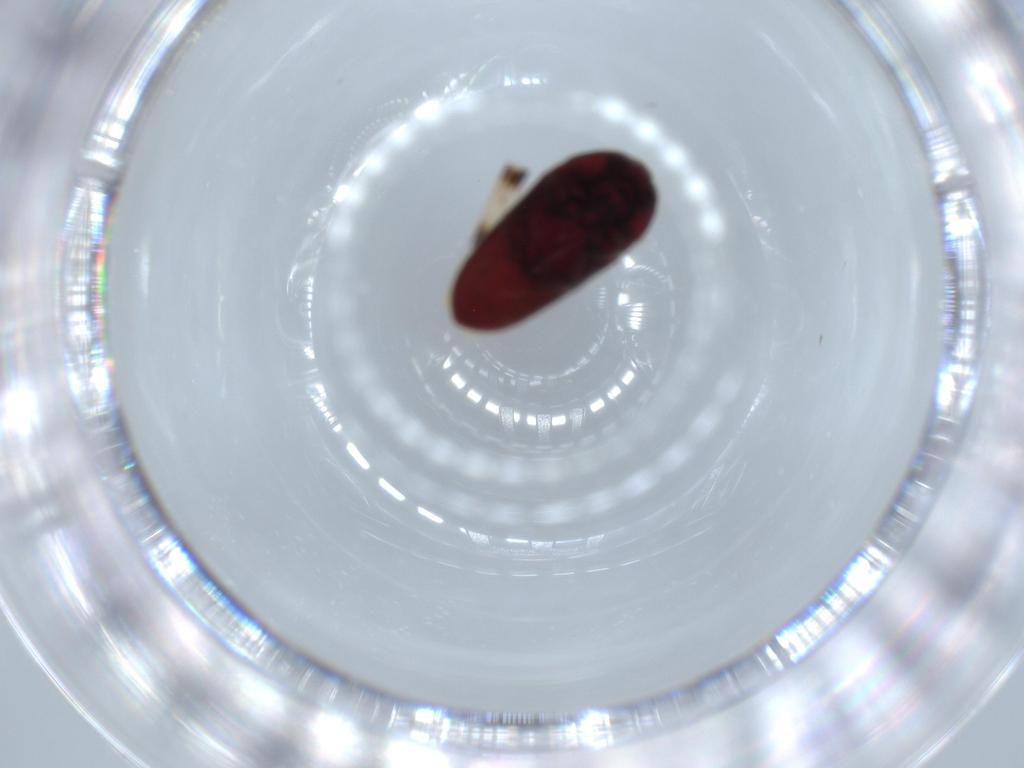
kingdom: Animalia
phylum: Arthropoda
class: Insecta
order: Coleoptera
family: Throscidae
